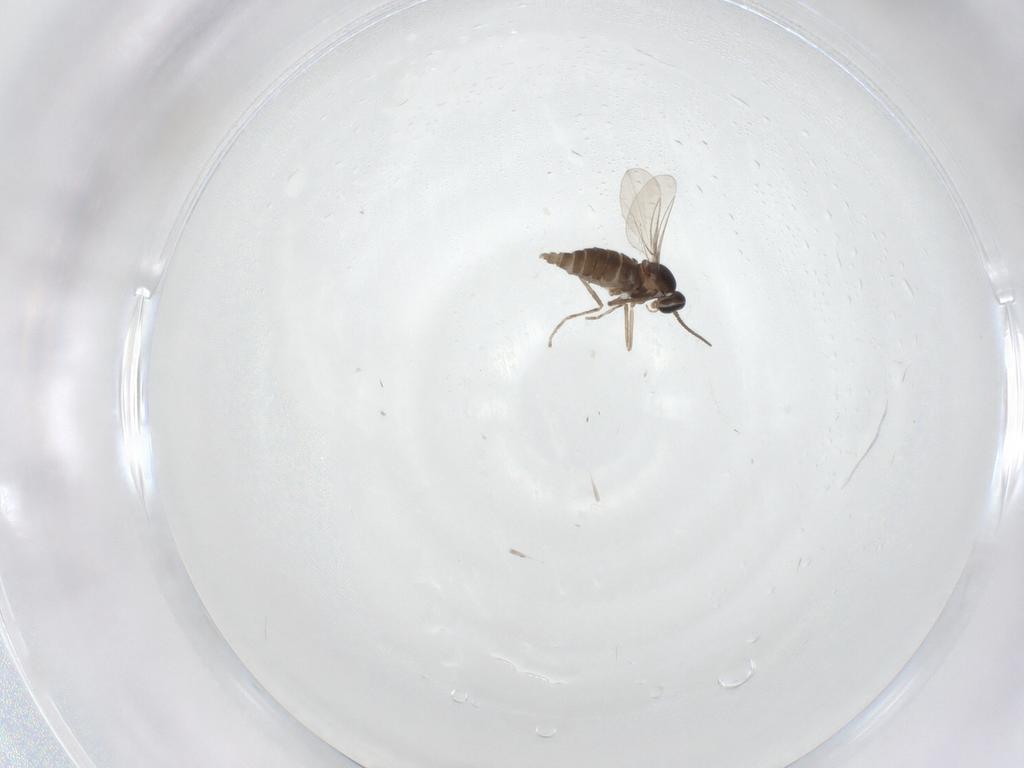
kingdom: Animalia
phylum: Arthropoda
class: Insecta
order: Diptera
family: Cecidomyiidae
